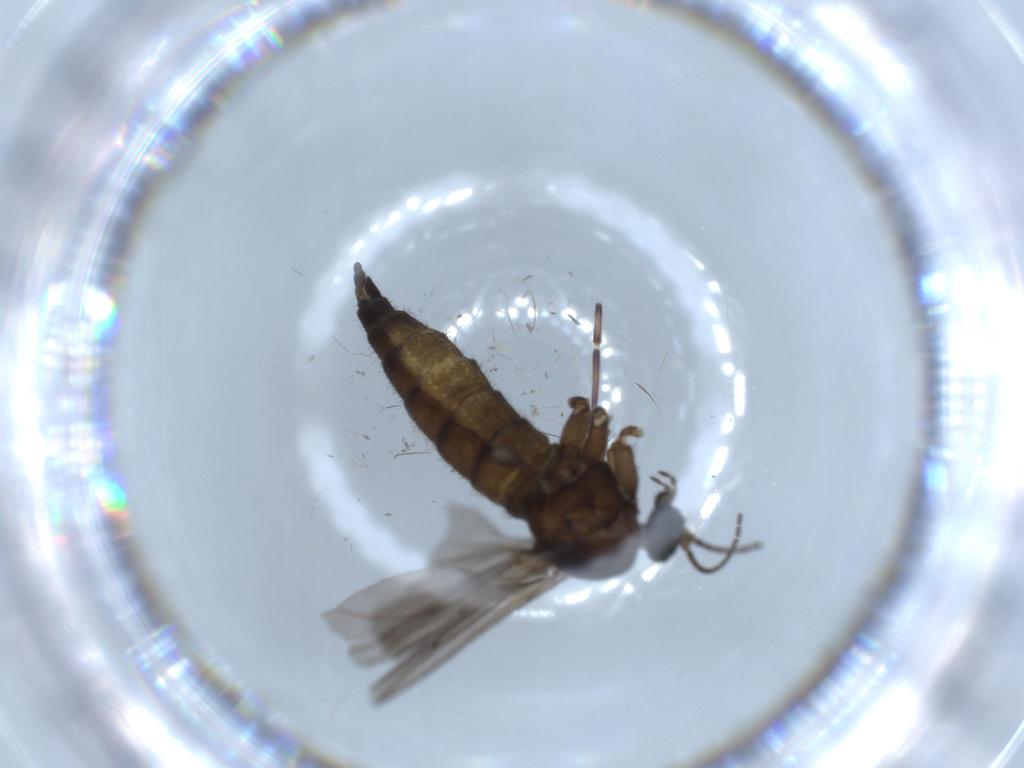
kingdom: Animalia
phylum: Arthropoda
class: Insecta
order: Diptera
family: Sciaridae
